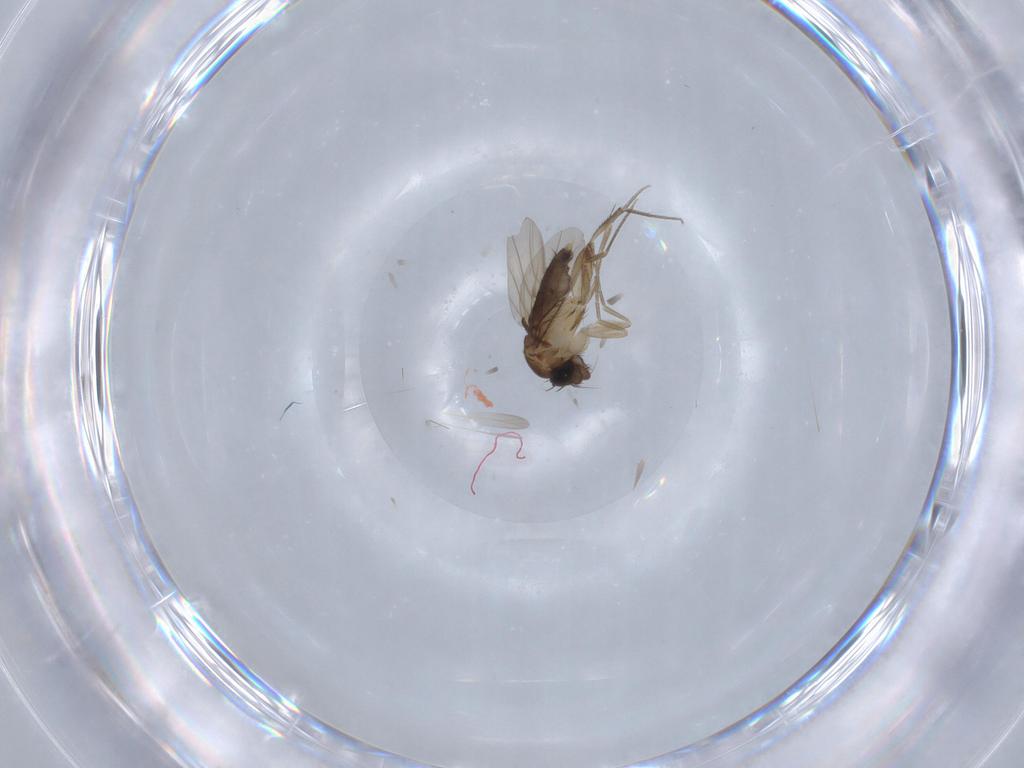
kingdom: Animalia
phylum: Arthropoda
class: Insecta
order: Diptera
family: Phoridae
